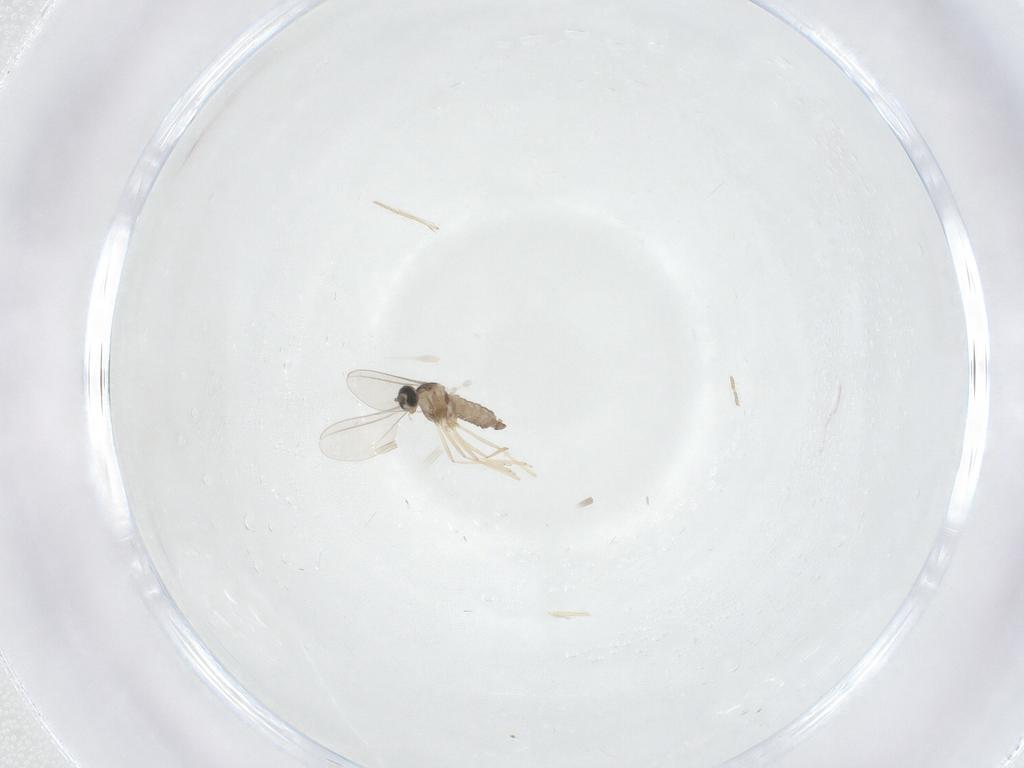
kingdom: Animalia
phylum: Arthropoda
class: Insecta
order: Diptera
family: Cecidomyiidae
